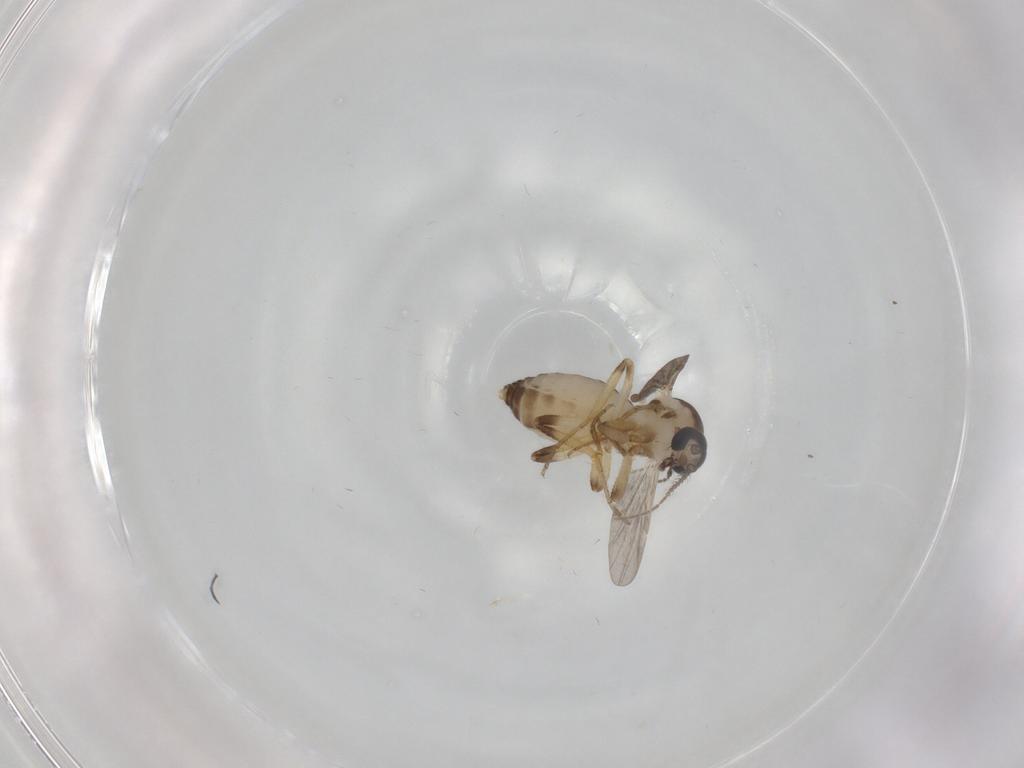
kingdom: Animalia
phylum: Arthropoda
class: Insecta
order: Diptera
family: Ceratopogonidae
